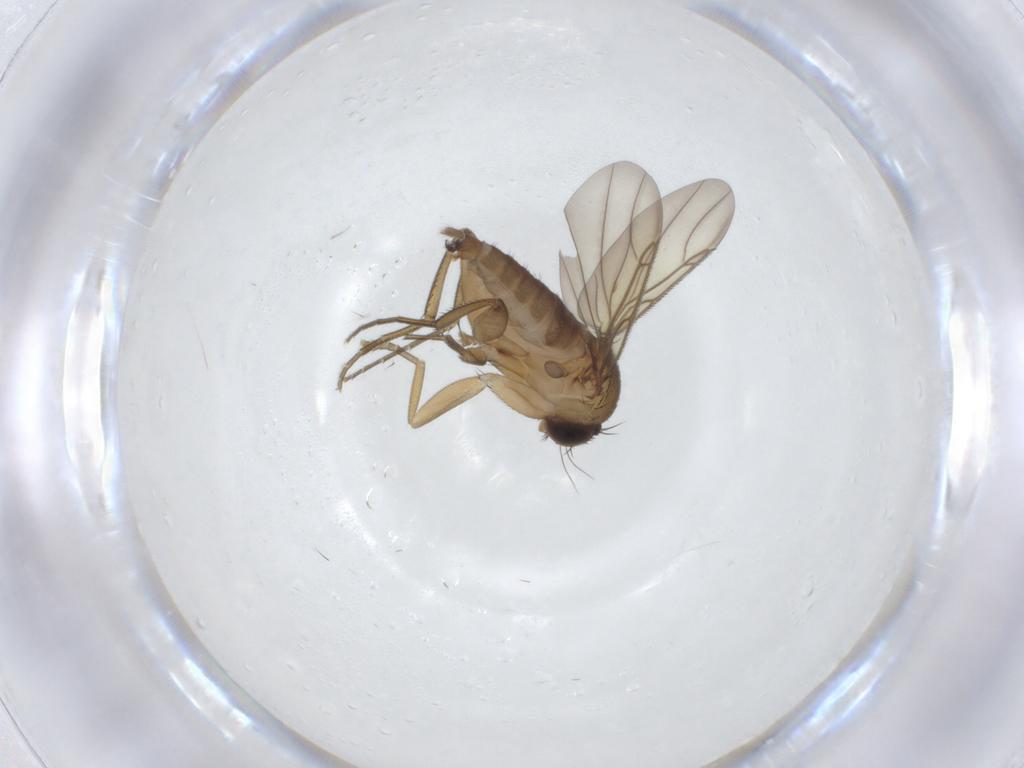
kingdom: Animalia
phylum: Arthropoda
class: Insecta
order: Diptera
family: Phoridae
